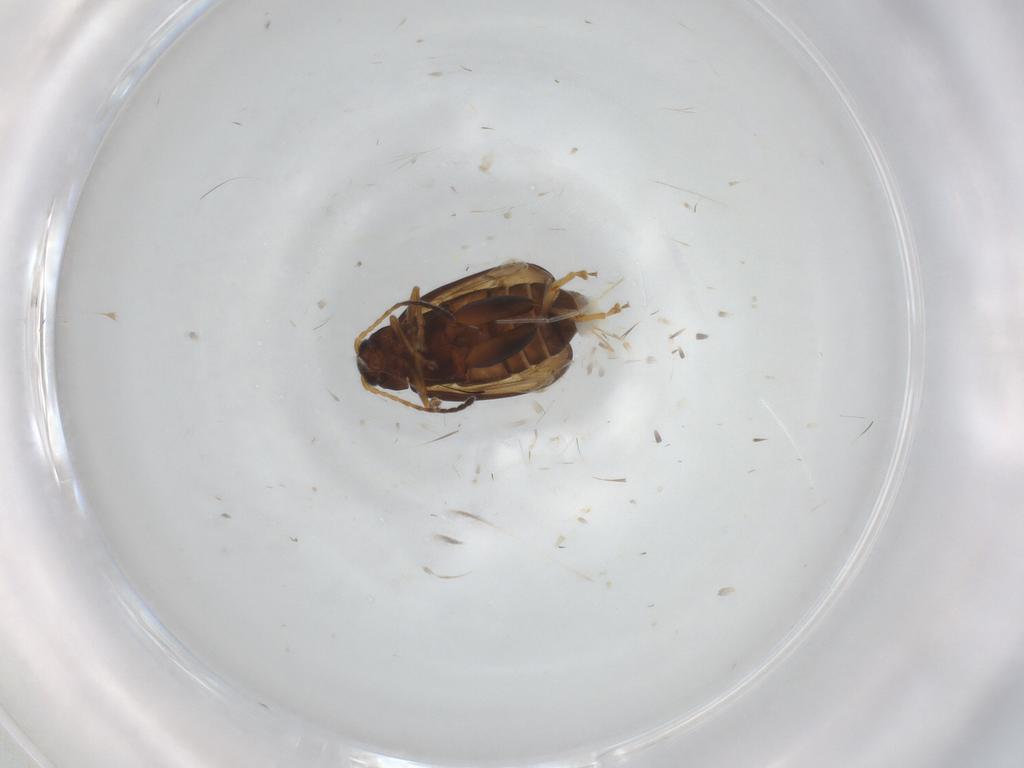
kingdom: Animalia
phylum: Arthropoda
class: Insecta
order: Coleoptera
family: Chrysomelidae
